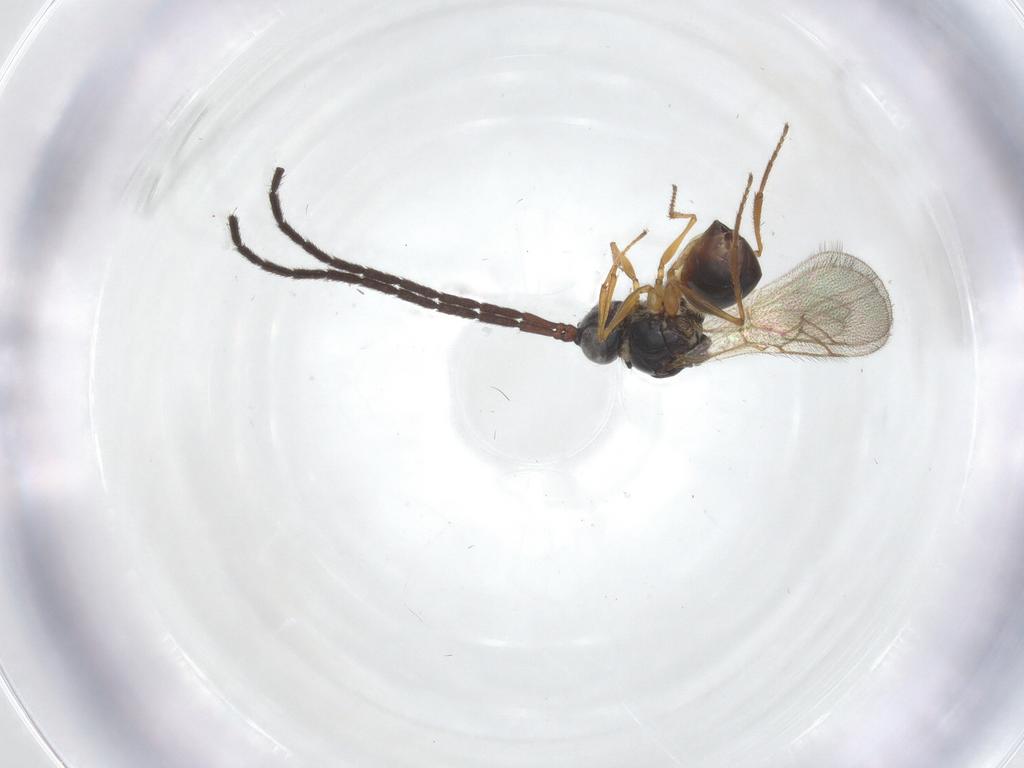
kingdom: Animalia
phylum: Arthropoda
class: Insecta
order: Hymenoptera
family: Figitidae
